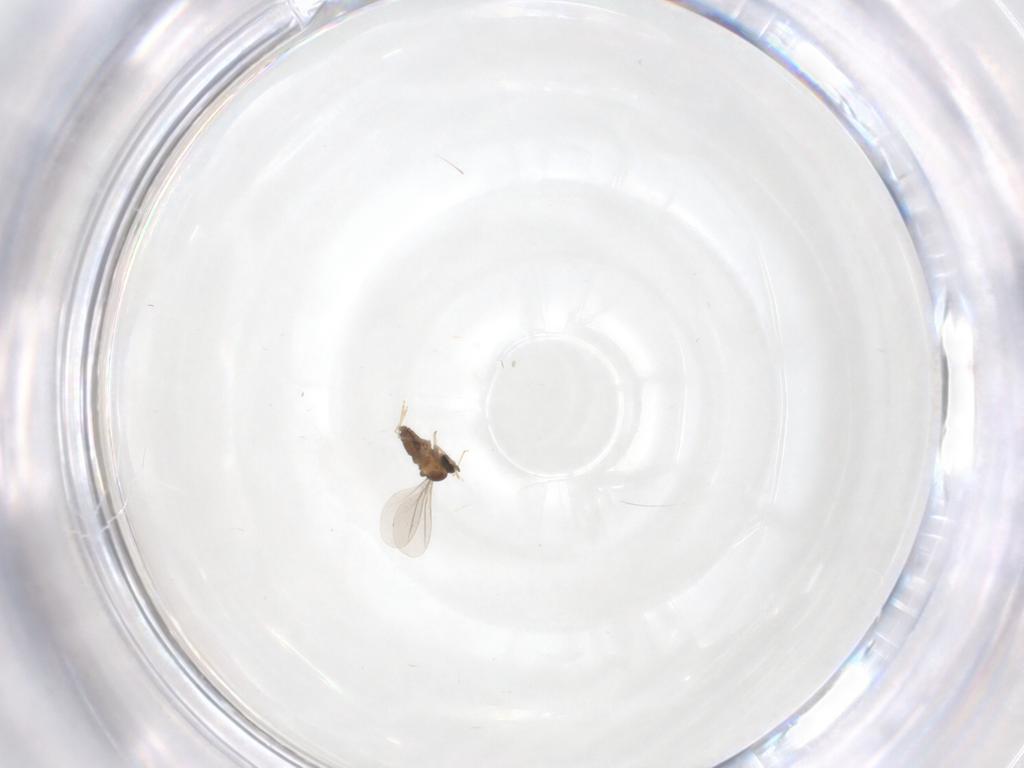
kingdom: Animalia
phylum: Arthropoda
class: Insecta
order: Diptera
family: Cecidomyiidae
